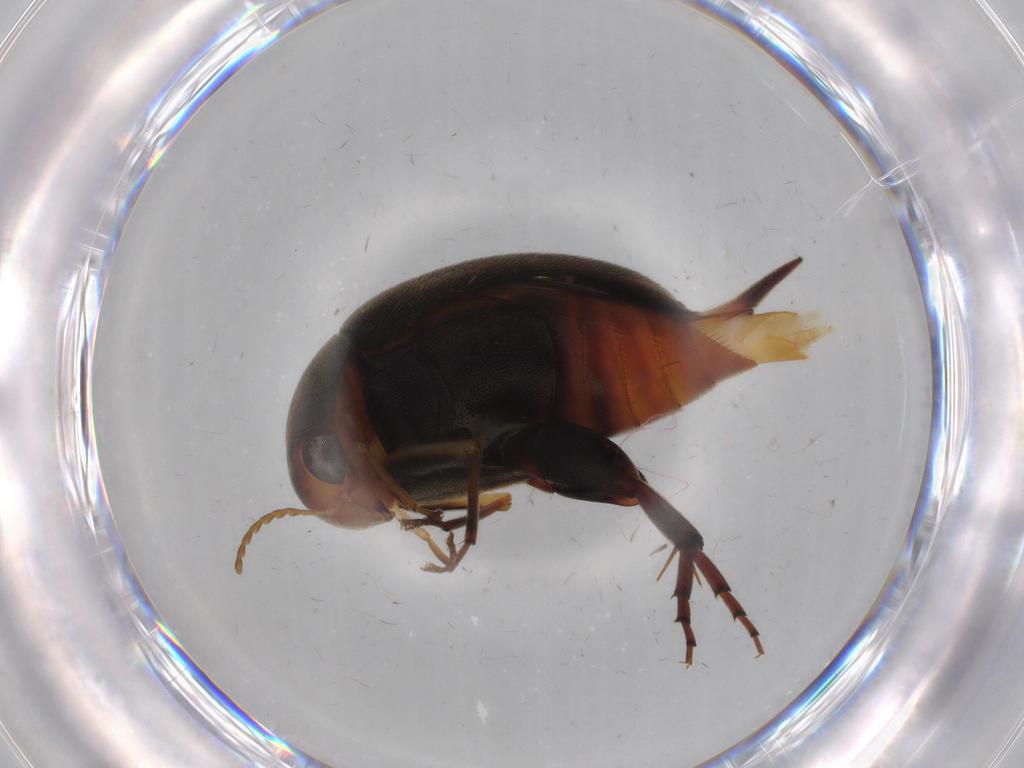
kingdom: Animalia
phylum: Arthropoda
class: Insecta
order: Coleoptera
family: Mordellidae
